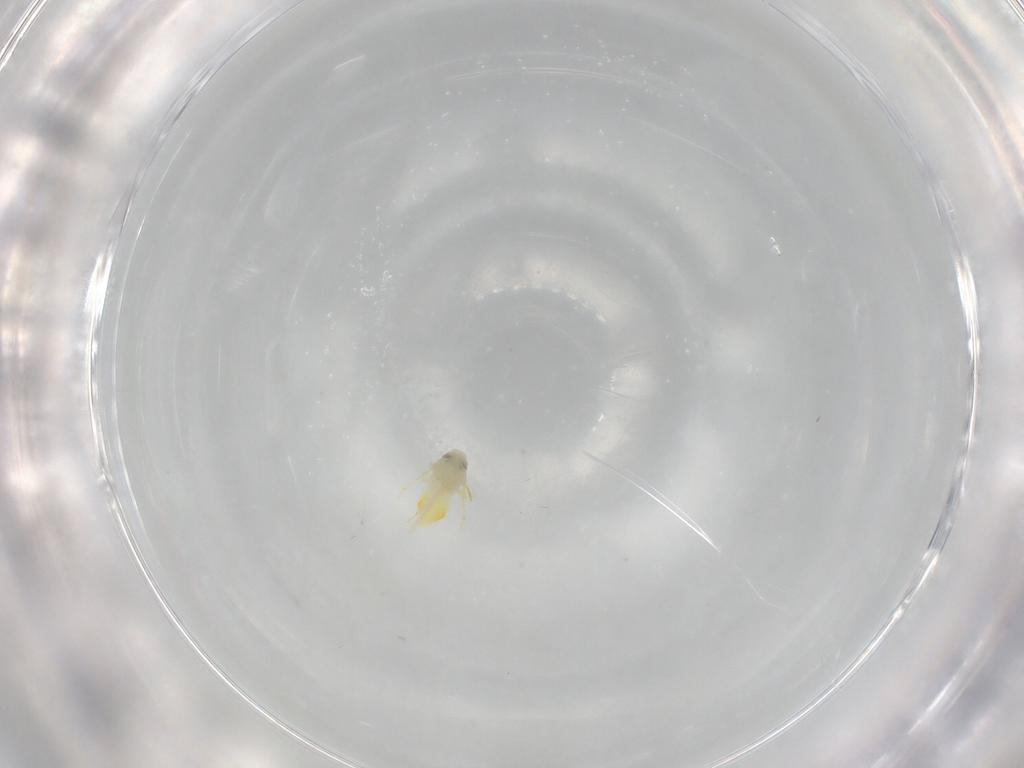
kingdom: Animalia
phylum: Arthropoda
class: Insecta
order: Hemiptera
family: Aleyrodidae
